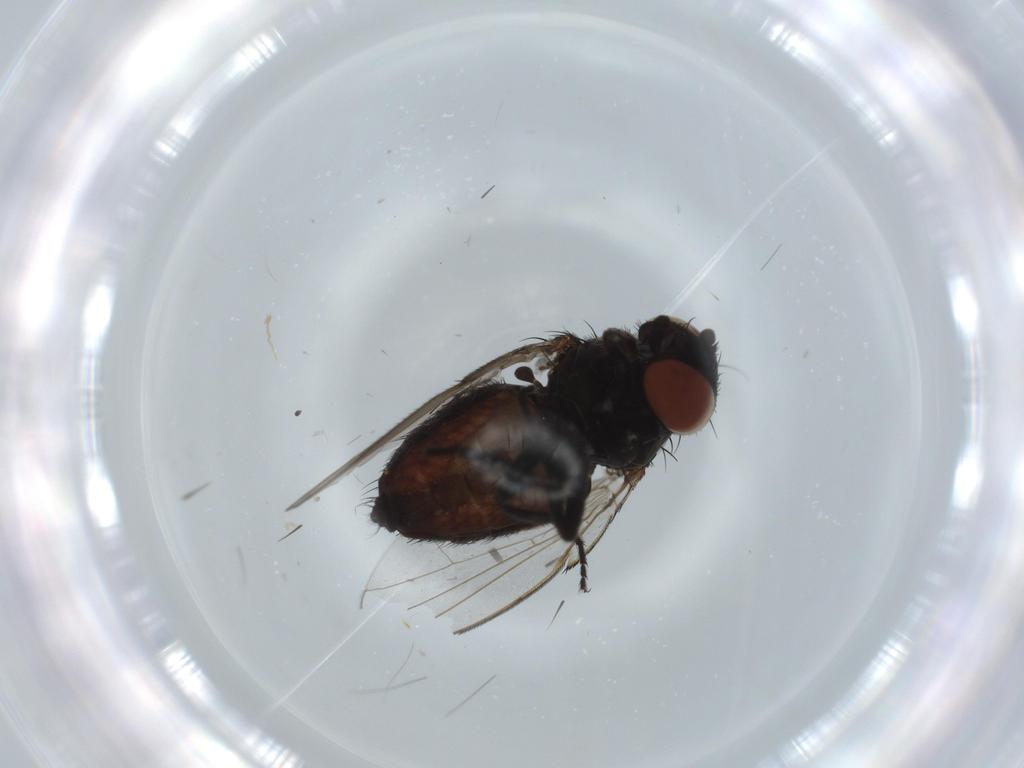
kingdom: Animalia
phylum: Arthropoda
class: Insecta
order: Diptera
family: Milichiidae
